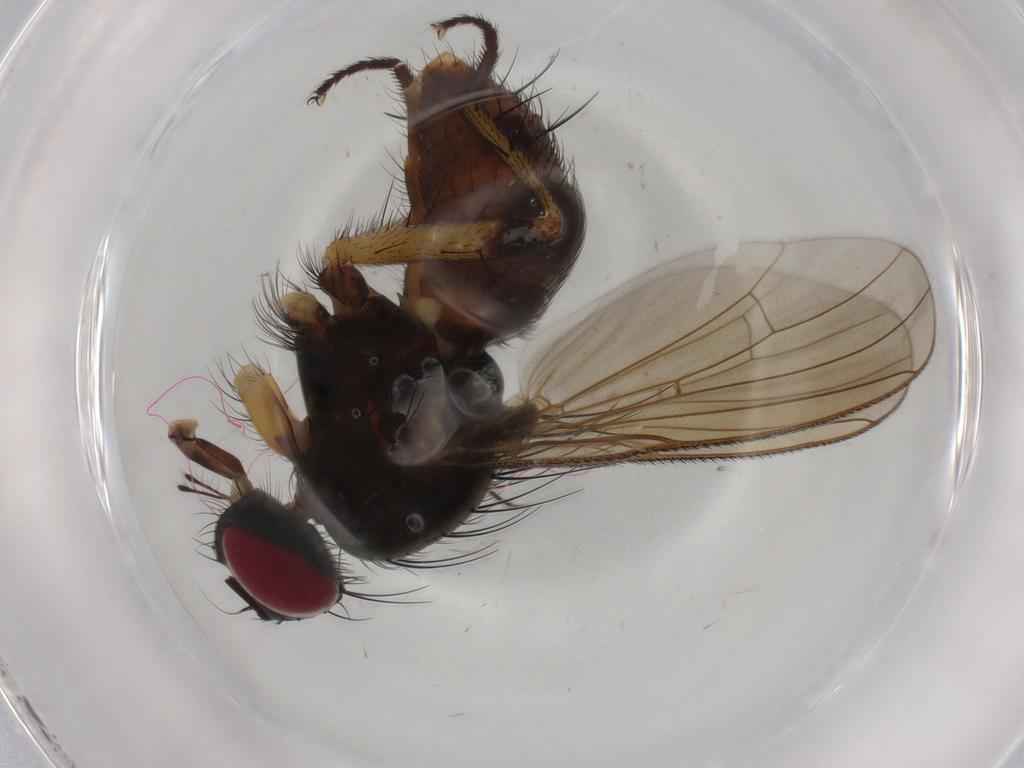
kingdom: Animalia
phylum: Arthropoda
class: Insecta
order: Diptera
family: Muscidae
